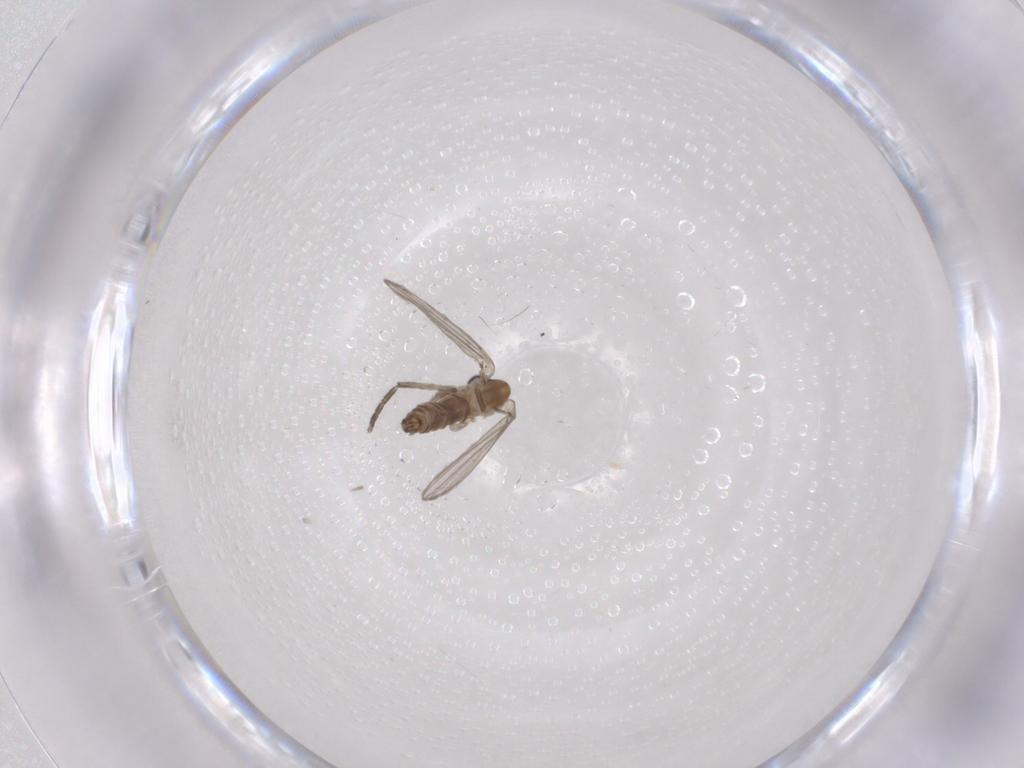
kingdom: Animalia
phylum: Arthropoda
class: Insecta
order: Diptera
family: Psychodidae
